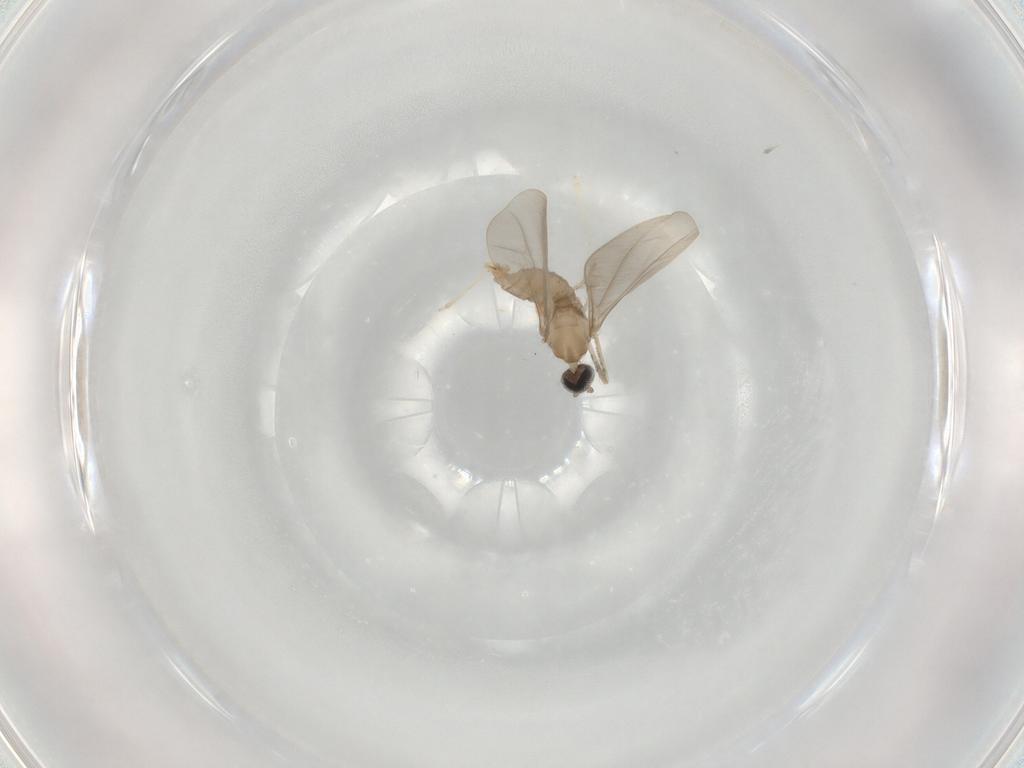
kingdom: Animalia
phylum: Arthropoda
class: Insecta
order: Diptera
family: Cecidomyiidae
